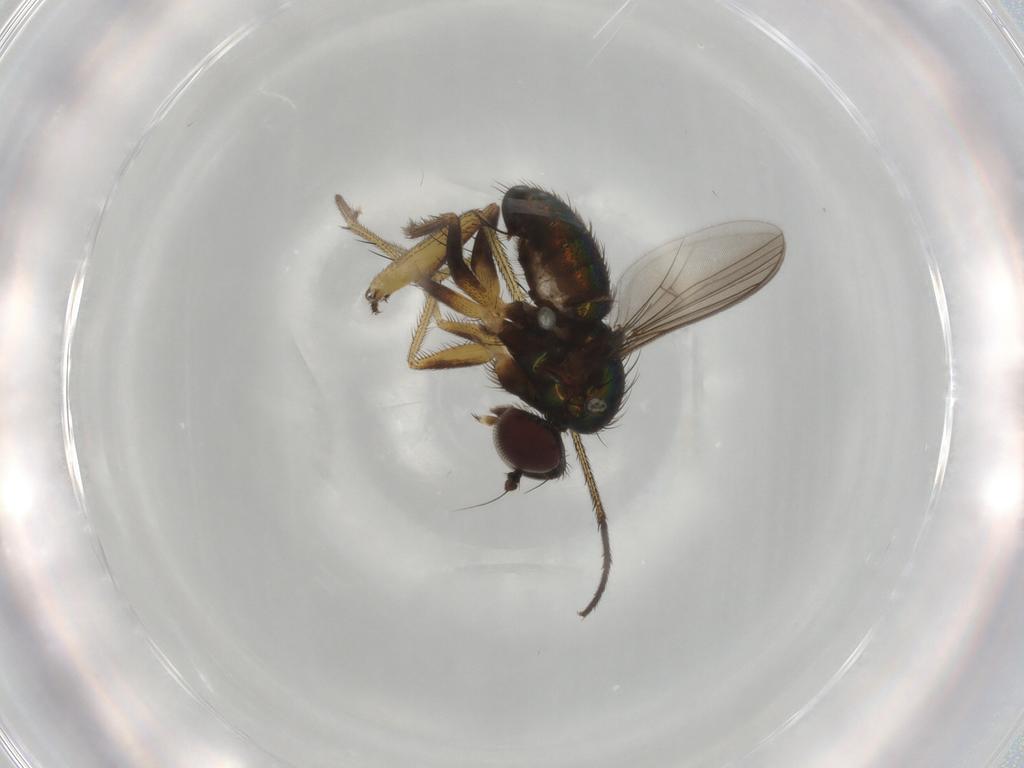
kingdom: Animalia
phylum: Arthropoda
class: Insecta
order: Diptera
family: Dolichopodidae
